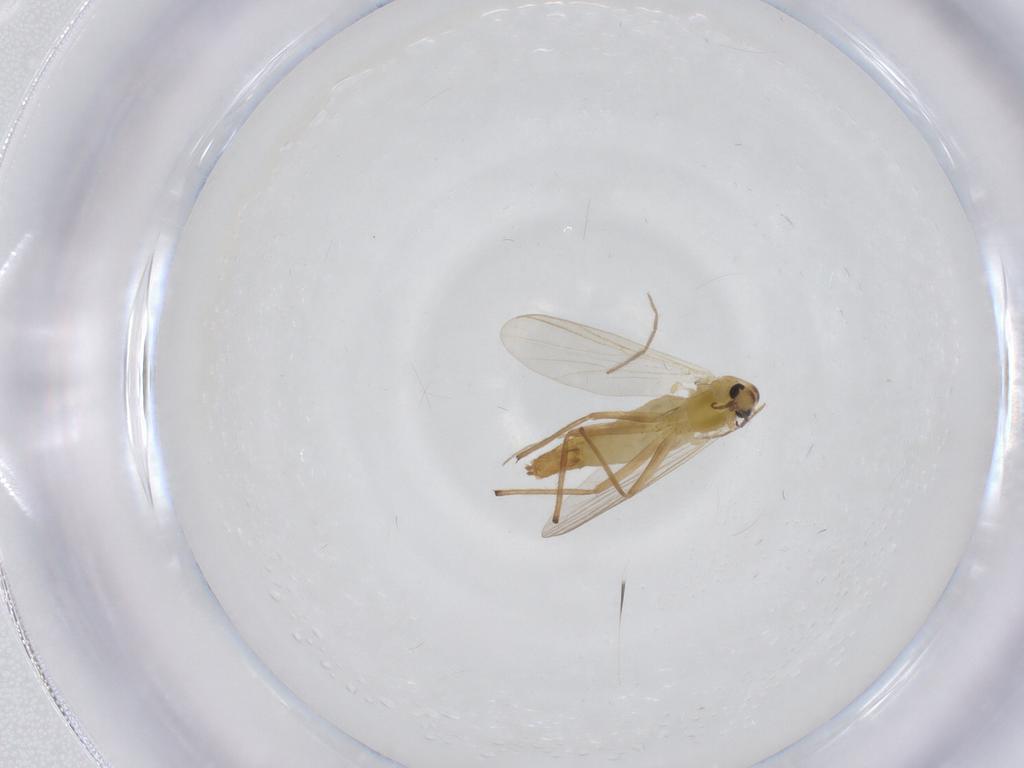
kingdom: Animalia
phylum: Arthropoda
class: Insecta
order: Diptera
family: Chironomidae
